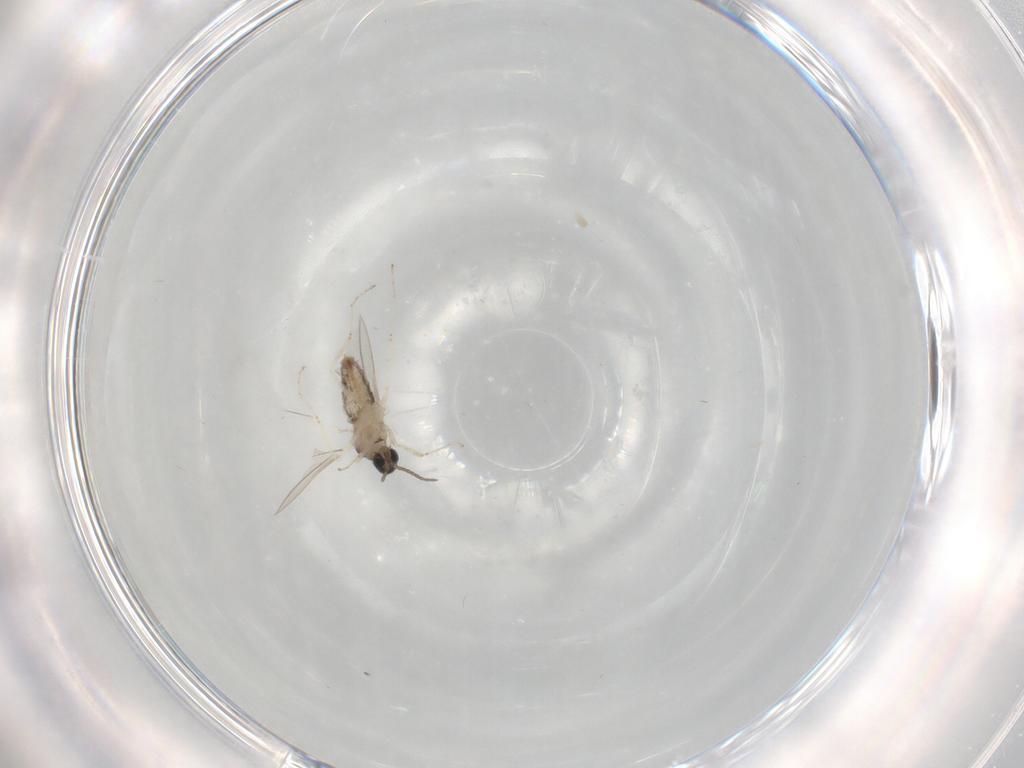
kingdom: Animalia
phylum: Arthropoda
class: Insecta
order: Diptera
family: Cecidomyiidae
